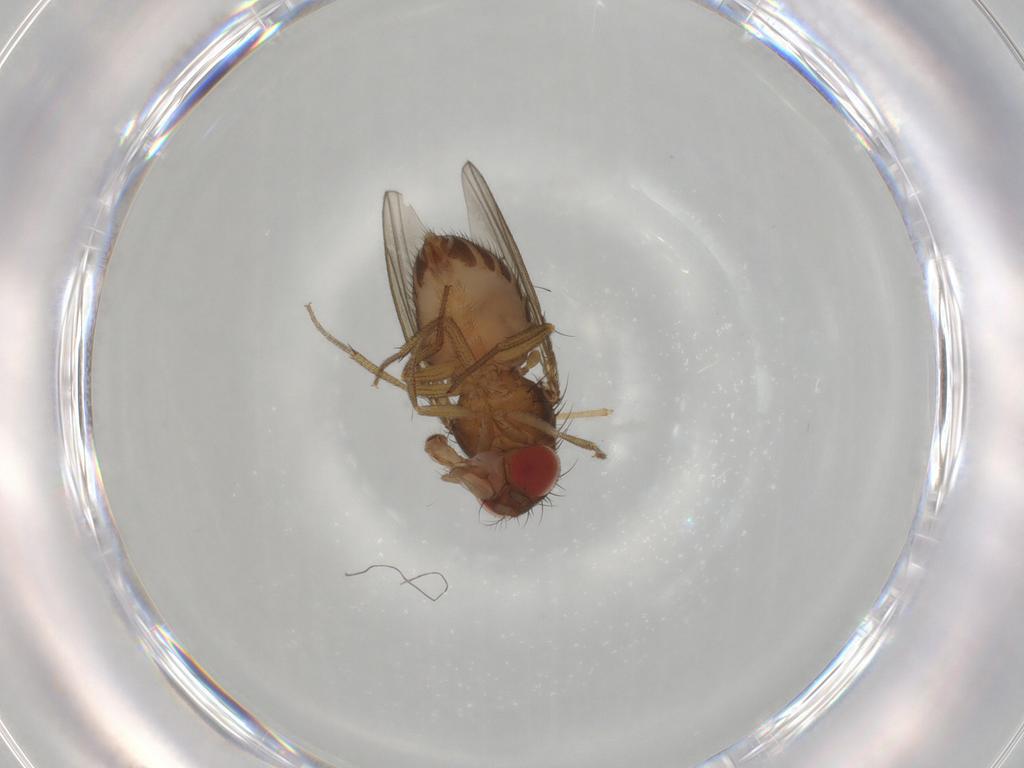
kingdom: Animalia
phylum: Arthropoda
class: Insecta
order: Diptera
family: Drosophilidae
